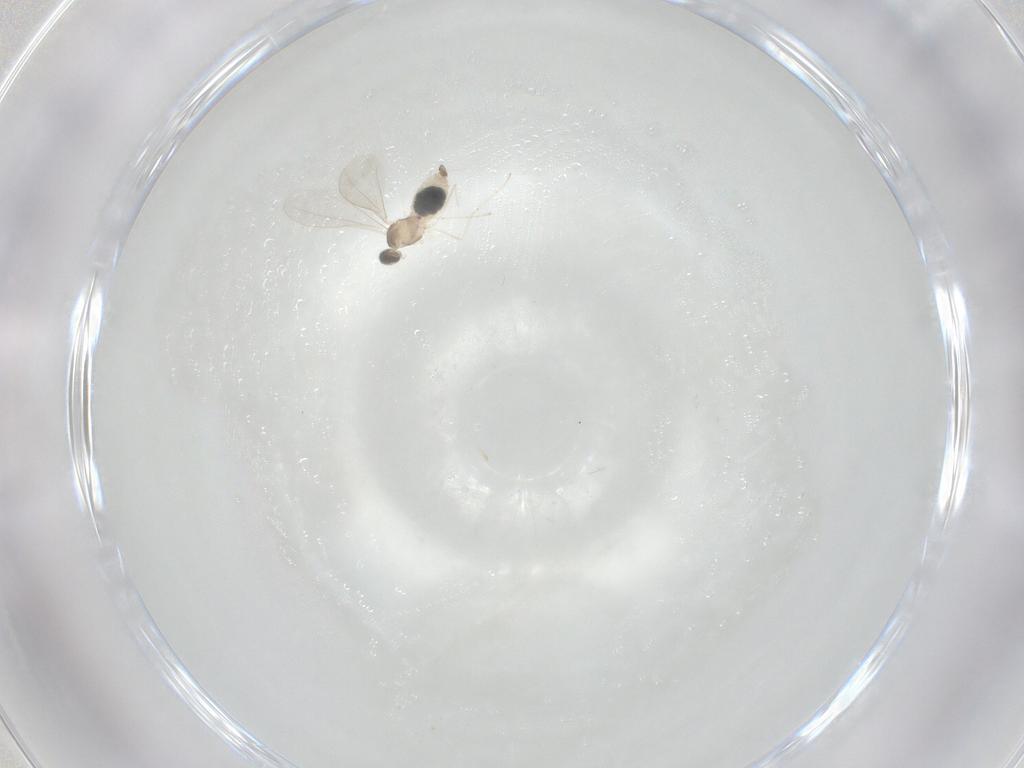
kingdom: Animalia
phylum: Arthropoda
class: Insecta
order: Diptera
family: Cecidomyiidae
